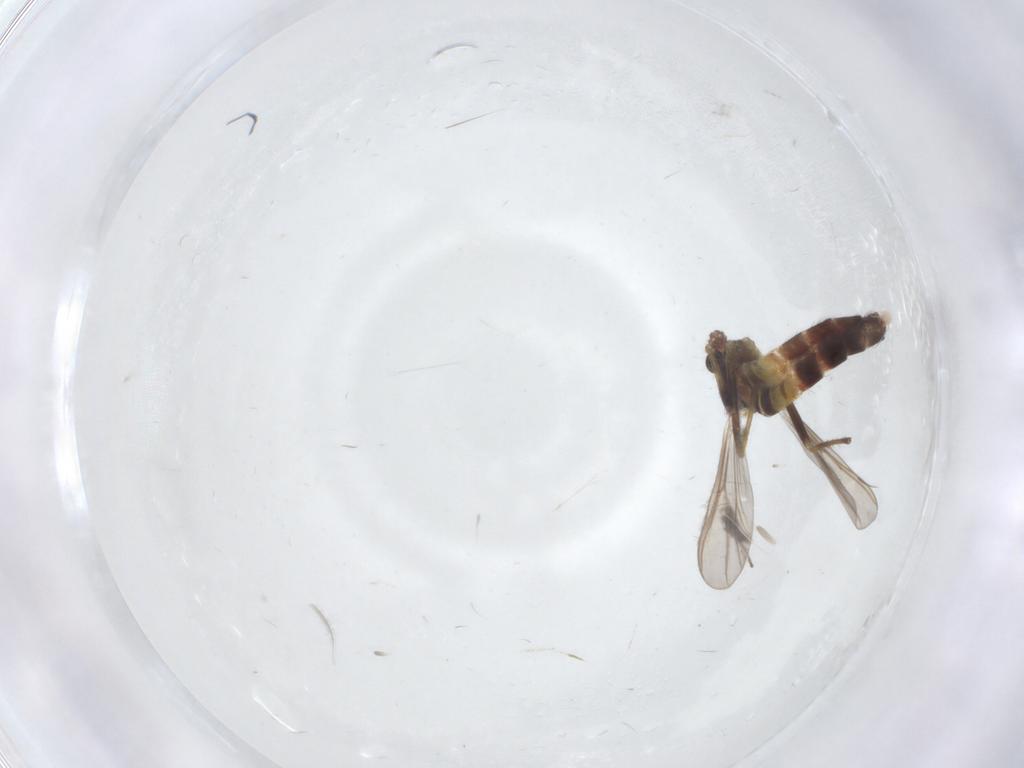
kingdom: Animalia
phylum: Arthropoda
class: Insecta
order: Diptera
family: Chironomidae
